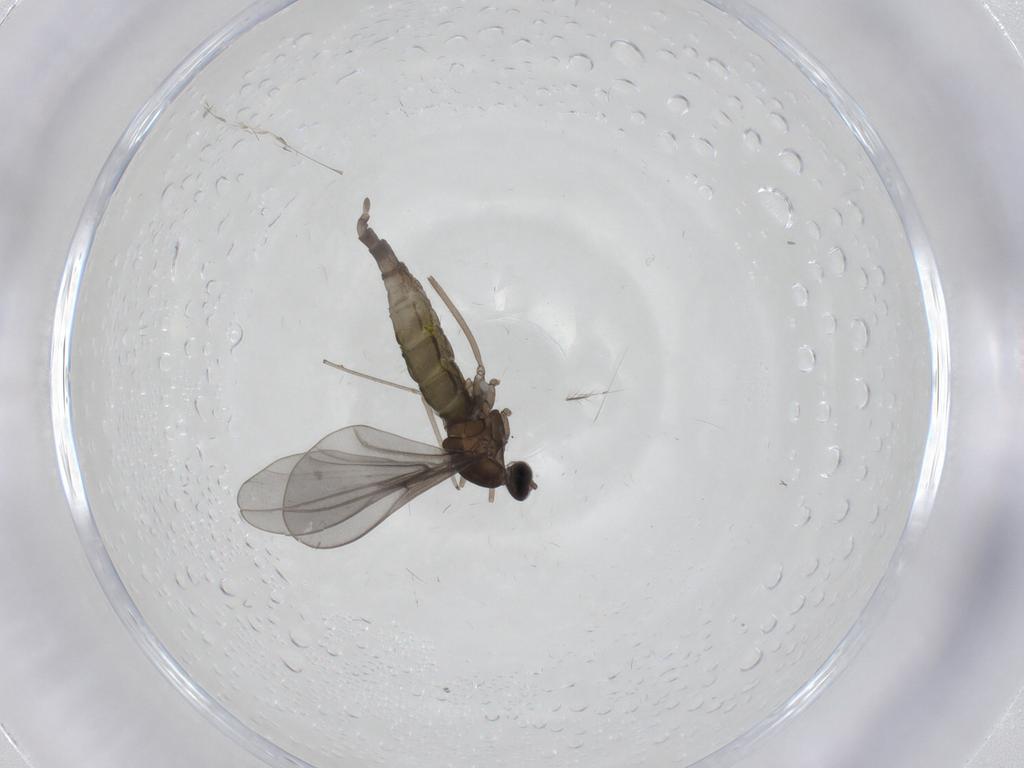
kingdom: Animalia
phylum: Arthropoda
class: Insecta
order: Diptera
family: Cecidomyiidae
